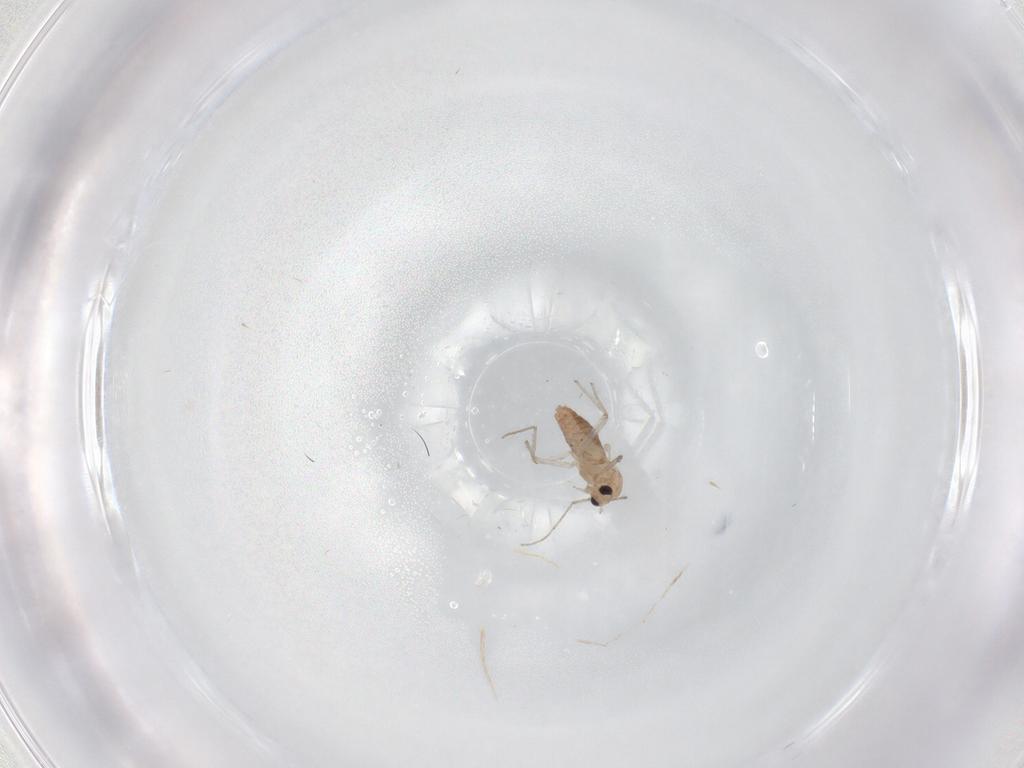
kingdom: Animalia
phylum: Arthropoda
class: Insecta
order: Diptera
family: Chironomidae
